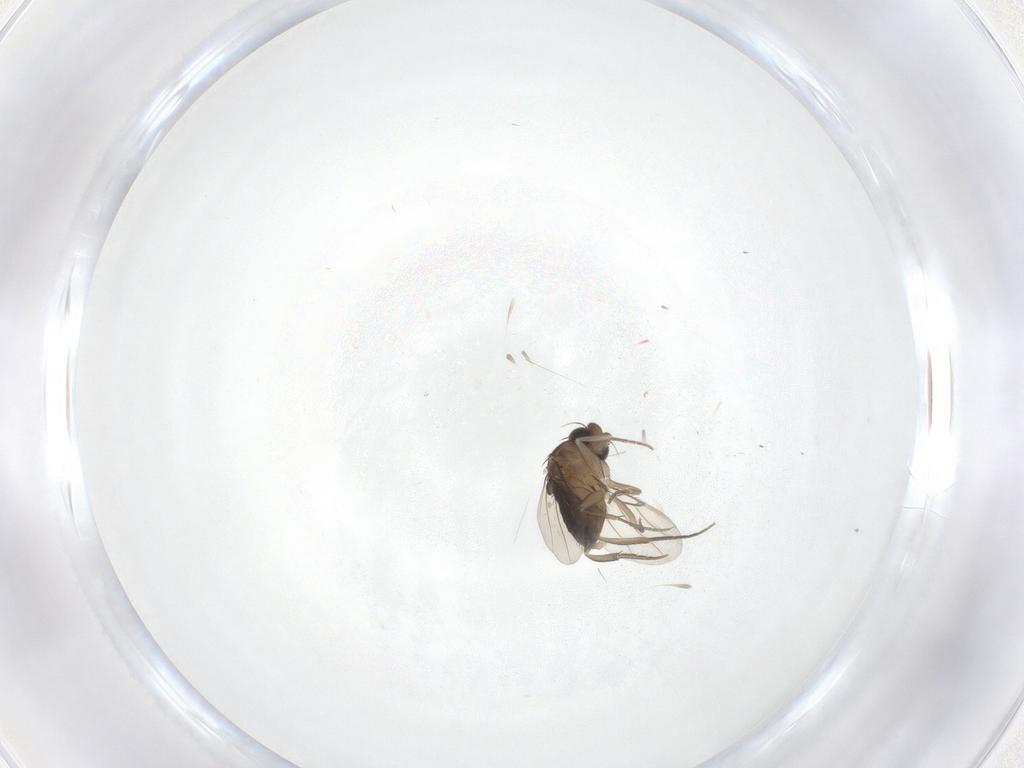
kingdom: Animalia
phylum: Arthropoda
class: Insecta
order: Diptera
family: Phoridae
